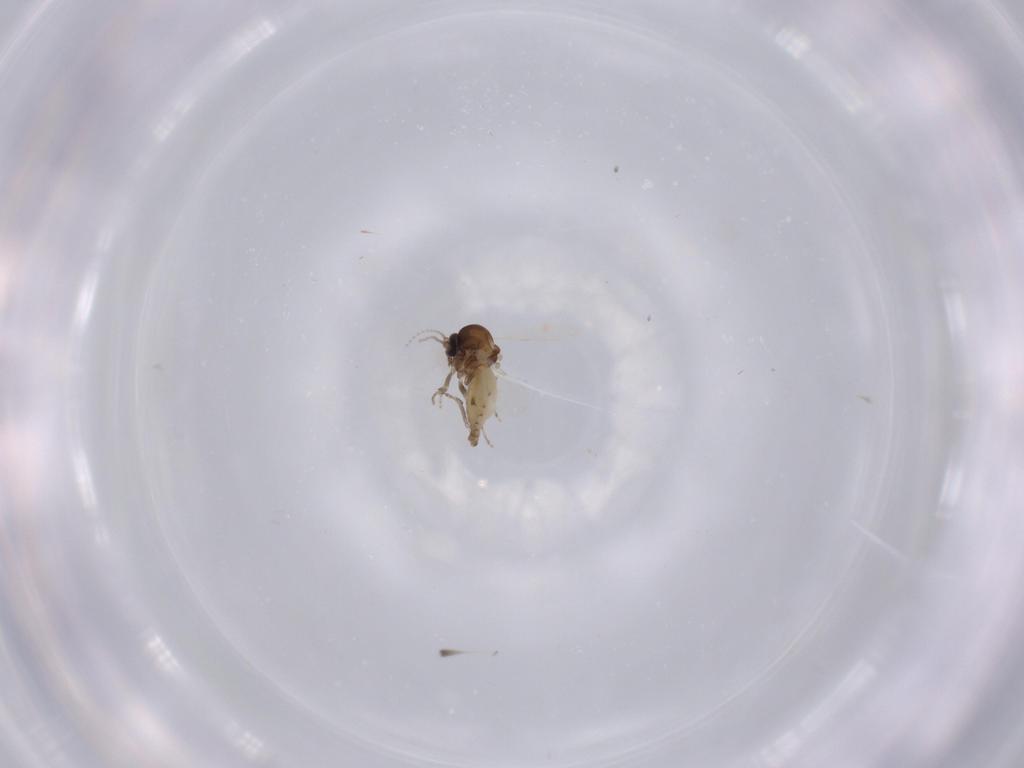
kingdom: Animalia
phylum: Arthropoda
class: Insecta
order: Diptera
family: Ceratopogonidae
